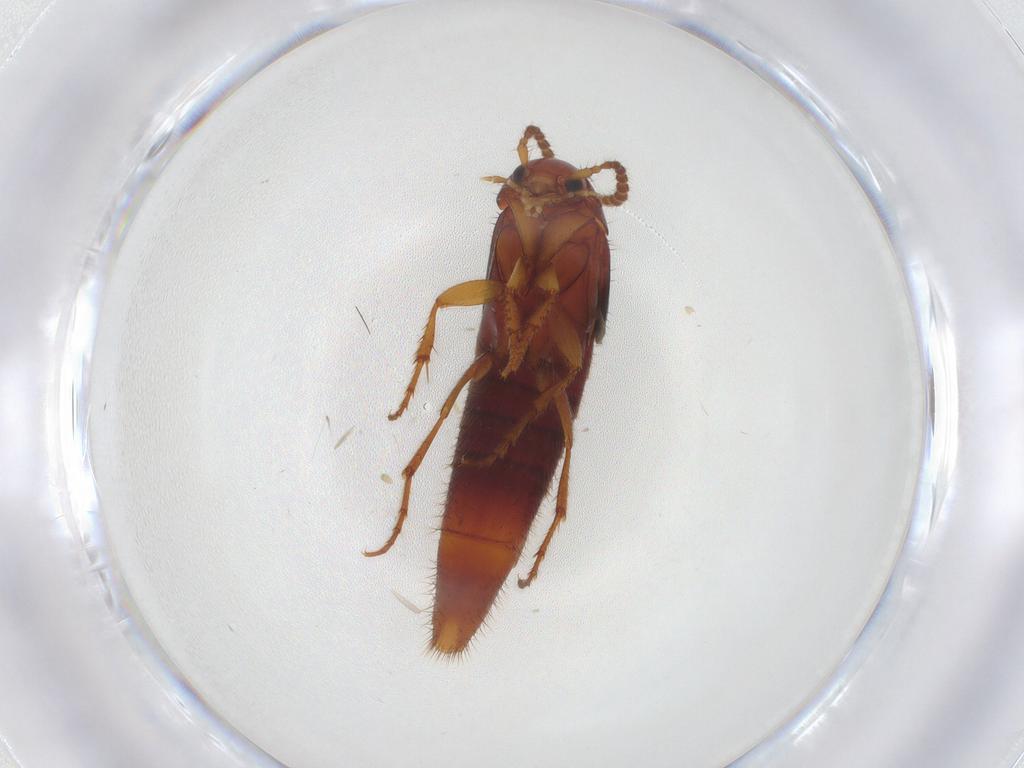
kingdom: Animalia
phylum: Arthropoda
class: Insecta
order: Coleoptera
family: Staphylinidae
